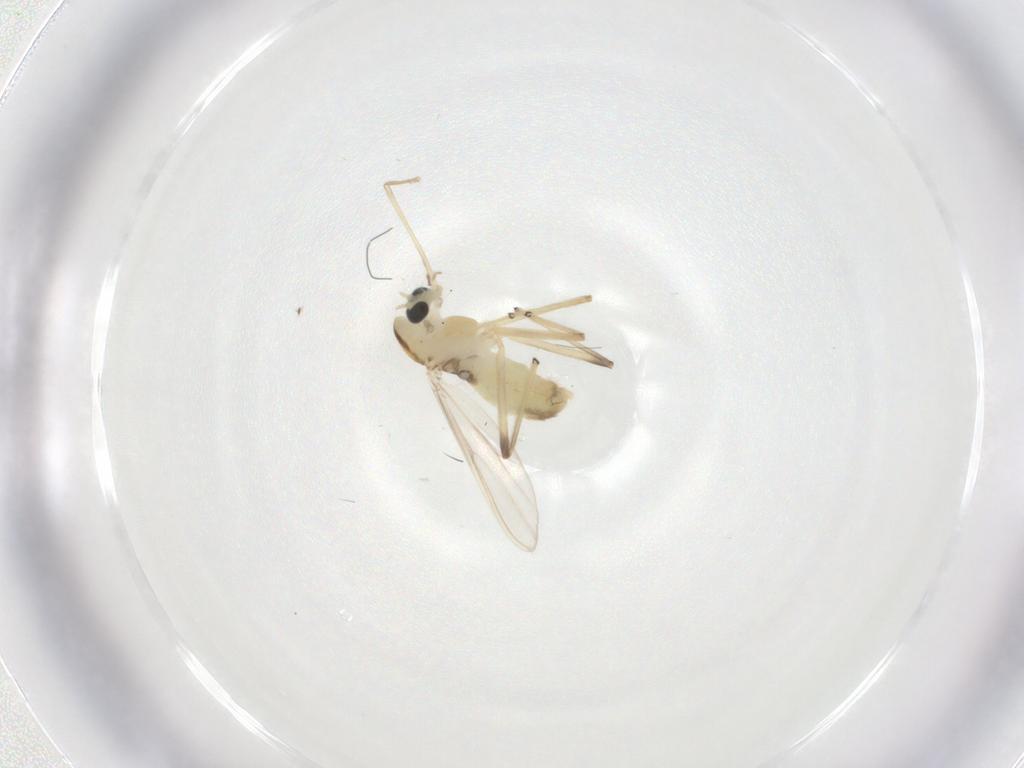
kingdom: Animalia
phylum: Arthropoda
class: Insecta
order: Diptera
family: Chironomidae
